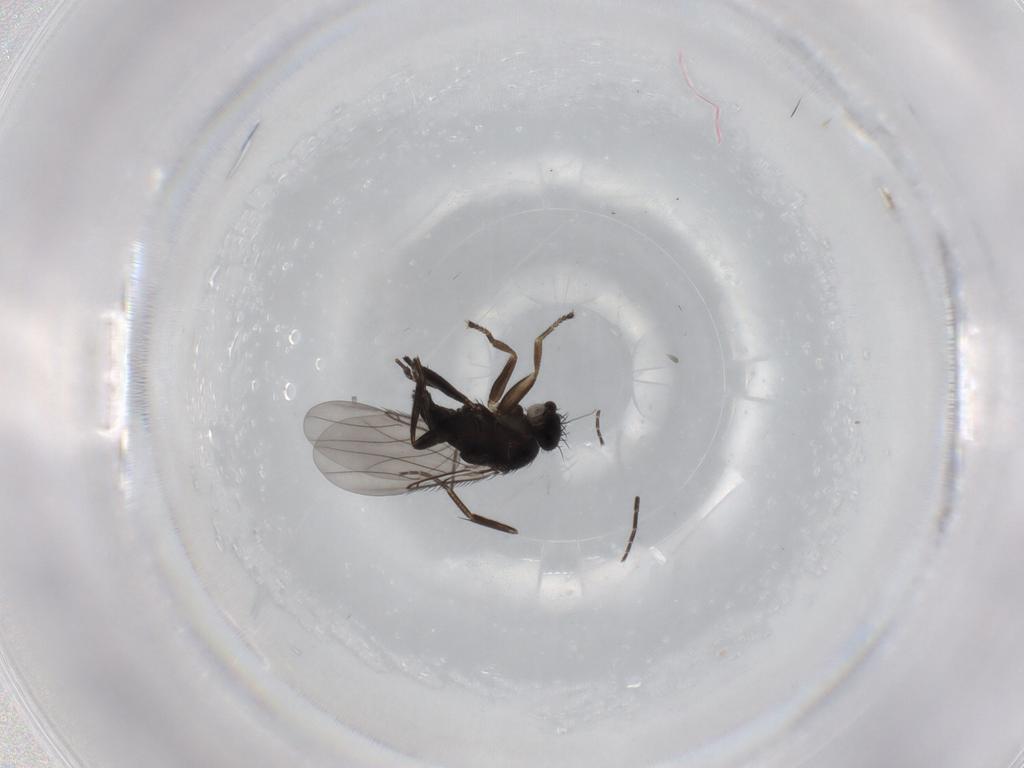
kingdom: Animalia
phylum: Arthropoda
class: Insecta
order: Diptera
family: Phoridae
